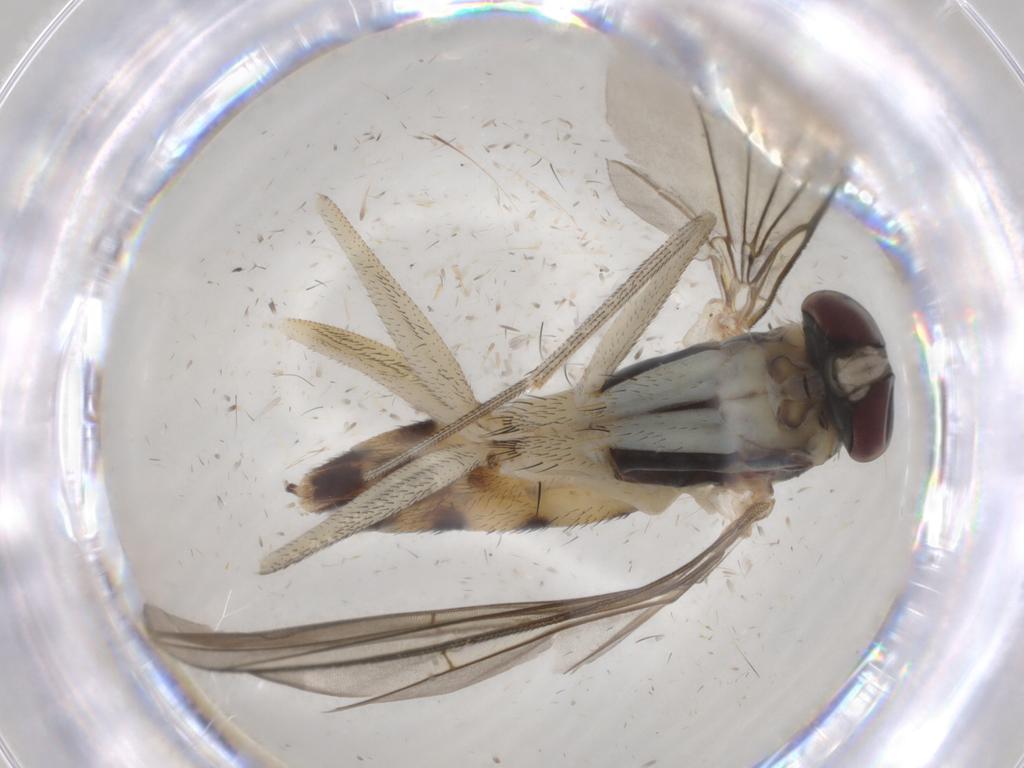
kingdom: Animalia
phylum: Arthropoda
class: Insecta
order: Diptera
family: Dolichopodidae
